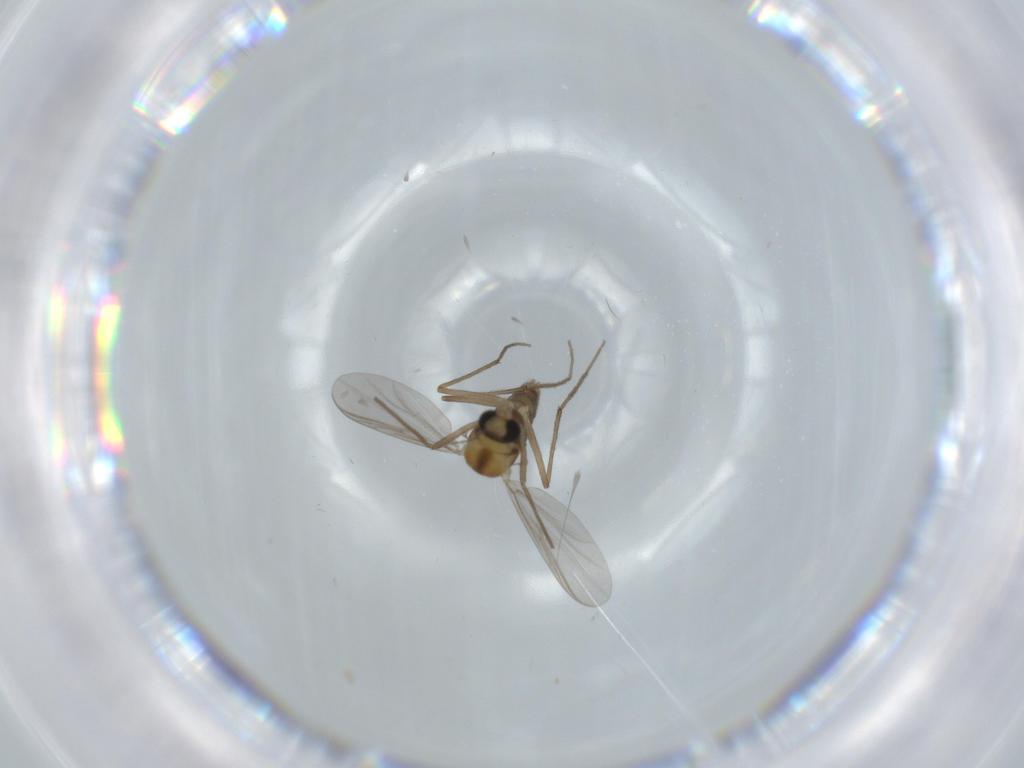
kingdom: Animalia
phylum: Arthropoda
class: Insecta
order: Diptera
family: Chironomidae
